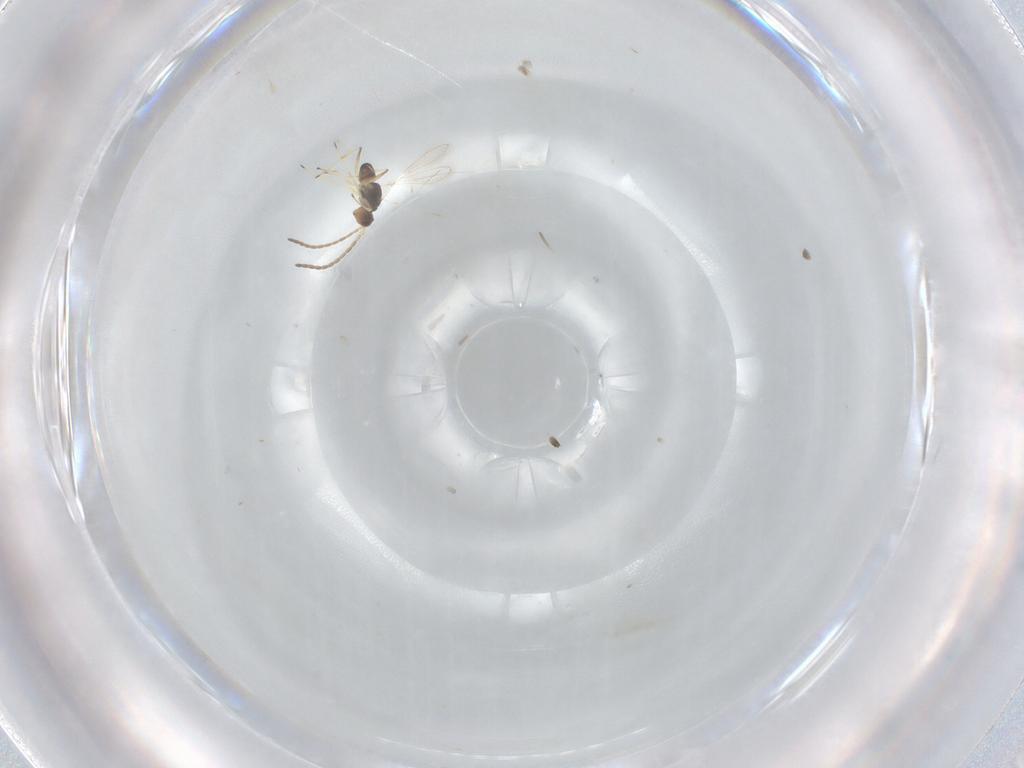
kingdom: Animalia
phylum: Arthropoda
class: Insecta
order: Hymenoptera
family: Mymaridae
